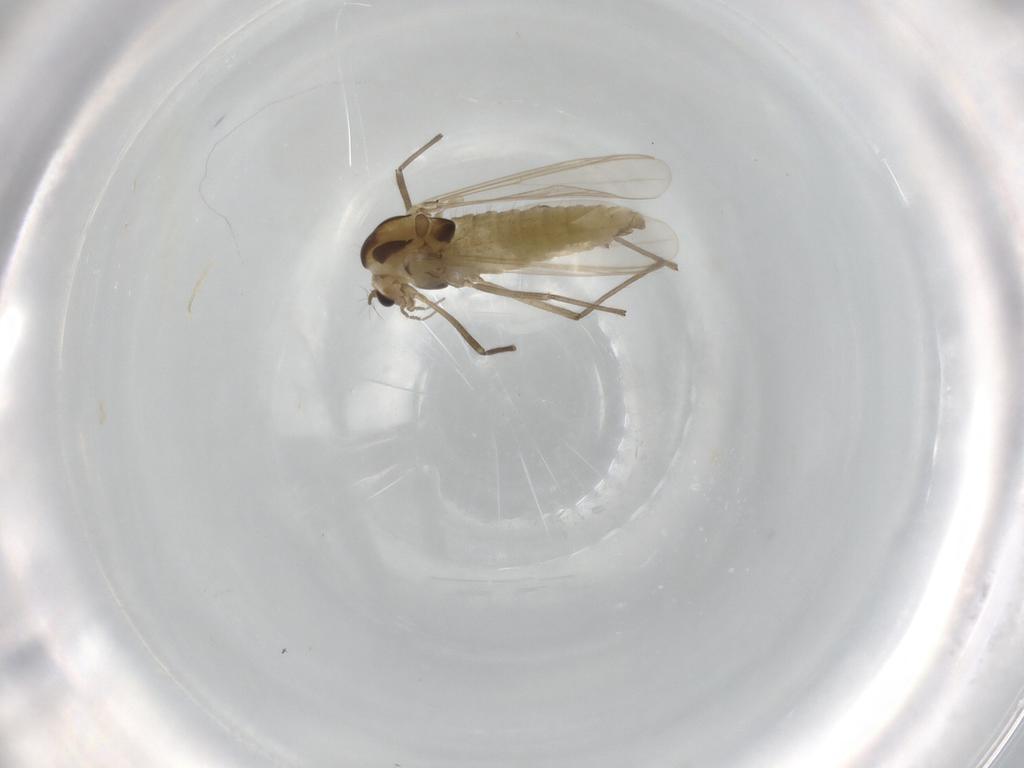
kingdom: Animalia
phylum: Arthropoda
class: Insecta
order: Diptera
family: Chironomidae
